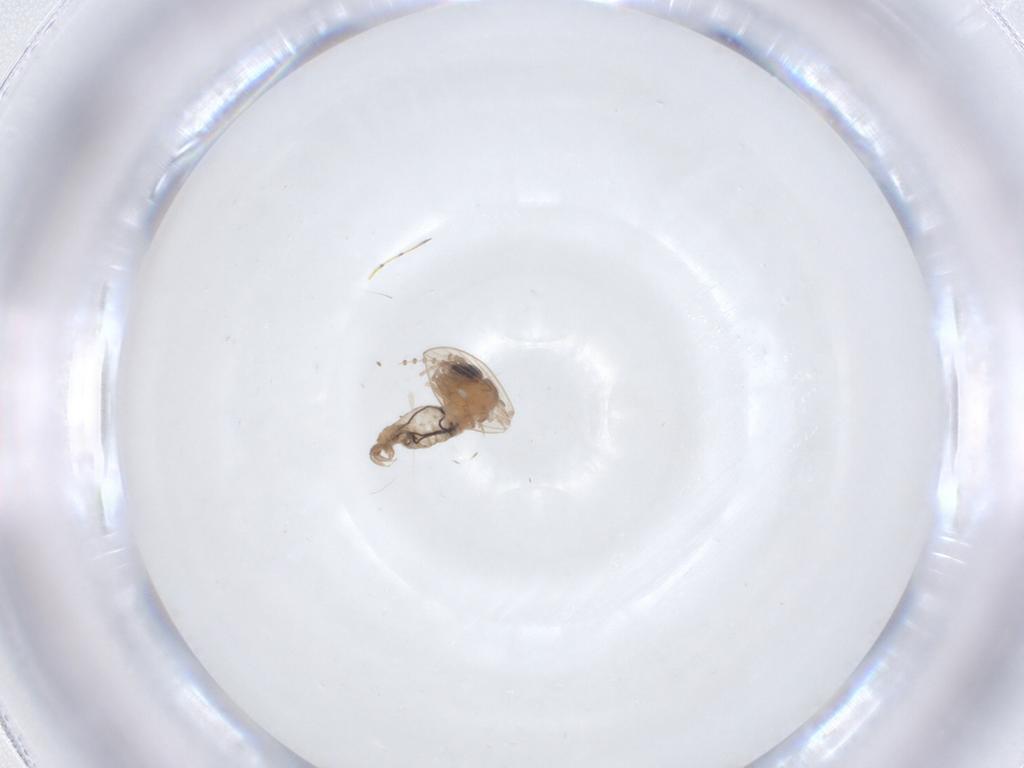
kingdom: Animalia
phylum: Arthropoda
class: Insecta
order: Diptera
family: Psychodidae
